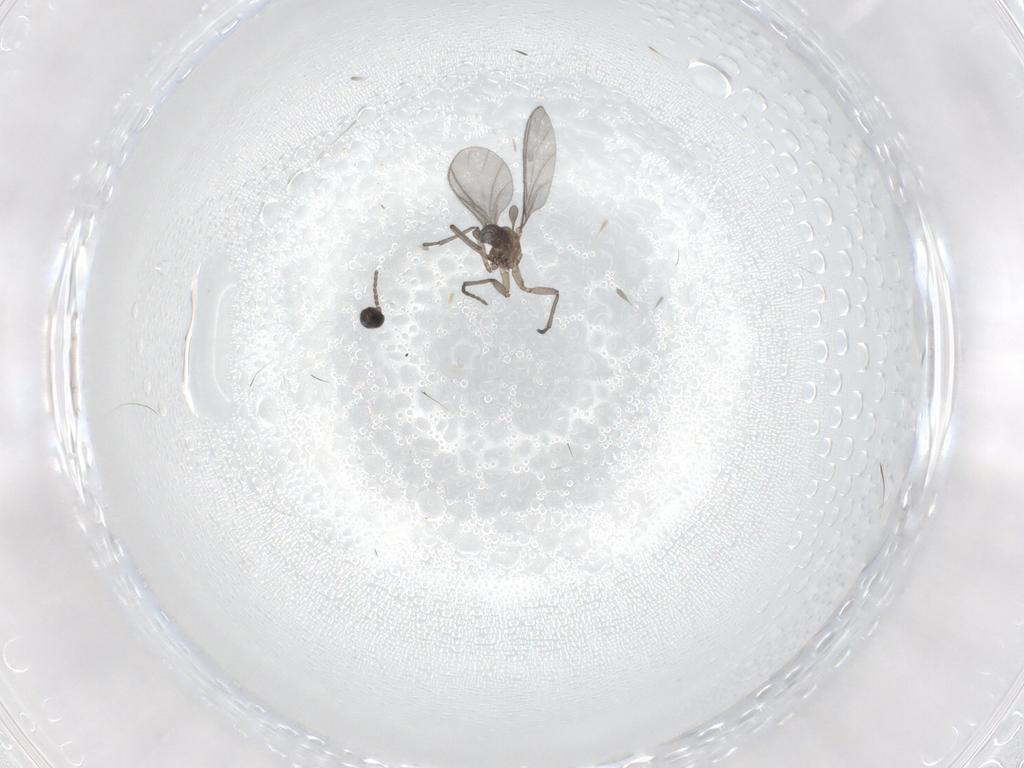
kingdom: Animalia
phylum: Arthropoda
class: Insecta
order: Diptera
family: Sciaridae
